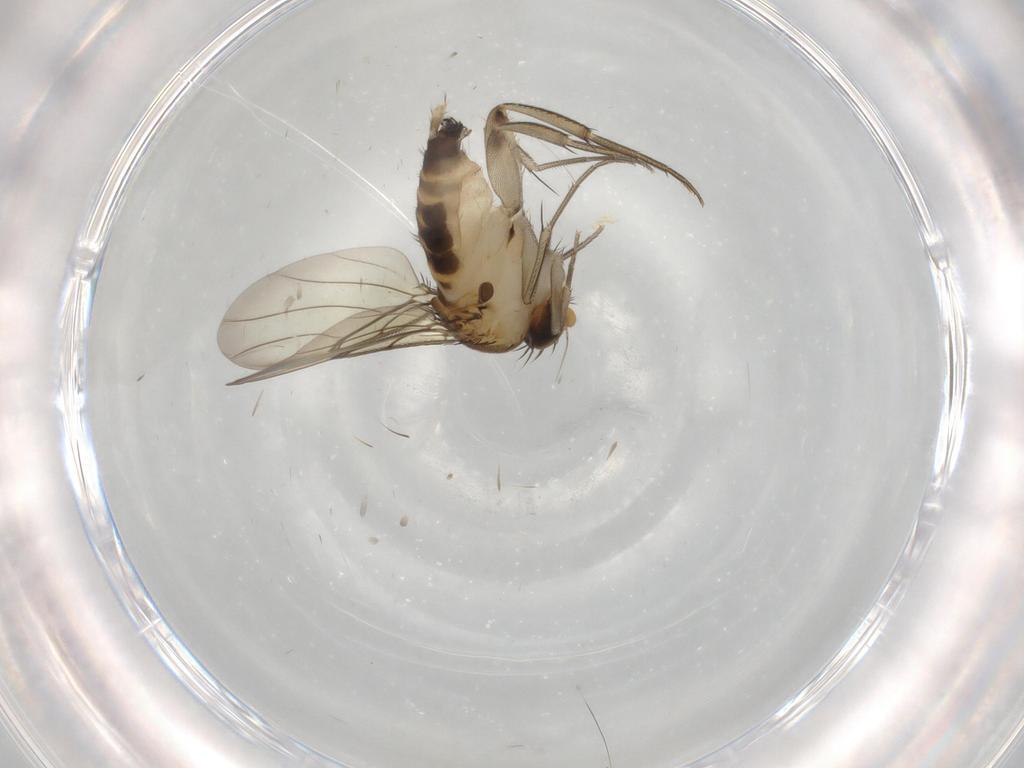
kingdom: Animalia
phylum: Arthropoda
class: Insecta
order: Diptera
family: Phoridae
